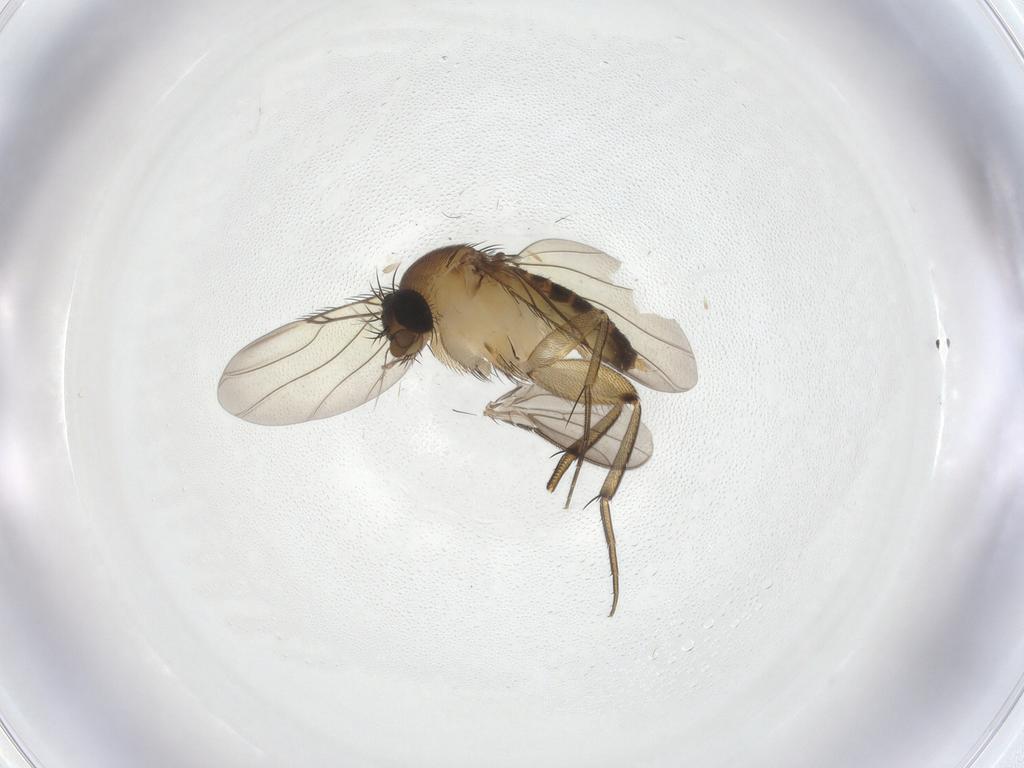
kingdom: Animalia
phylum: Arthropoda
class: Insecta
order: Diptera
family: Phoridae
